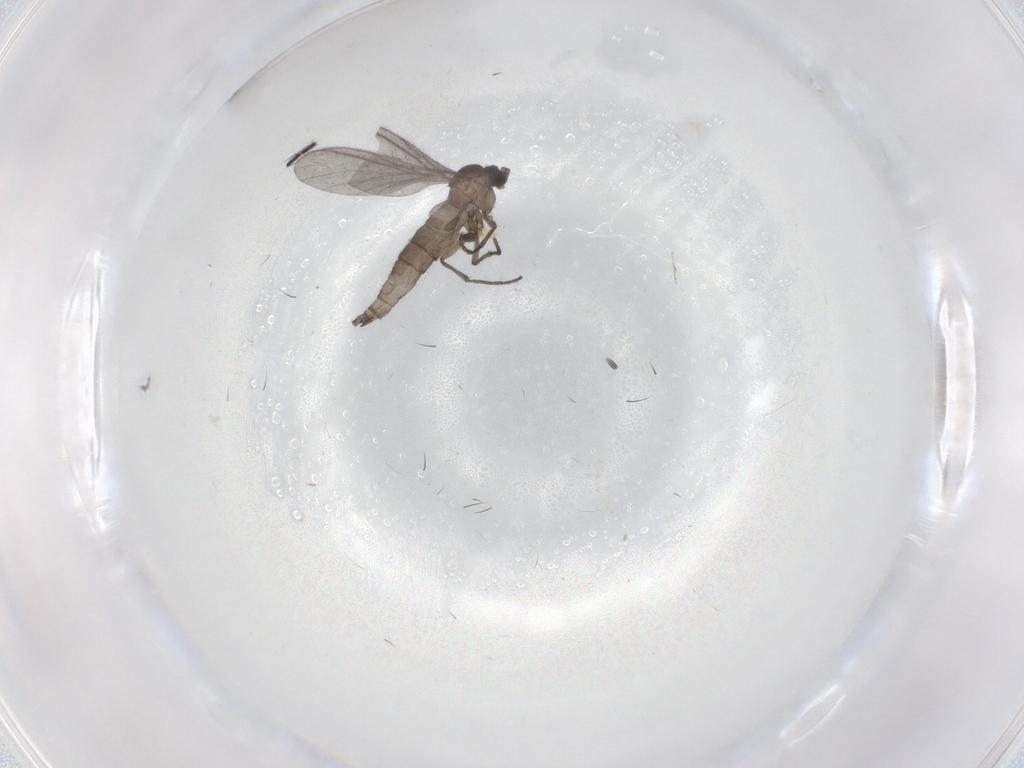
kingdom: Animalia
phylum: Arthropoda
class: Insecta
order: Diptera
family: Sciaridae
